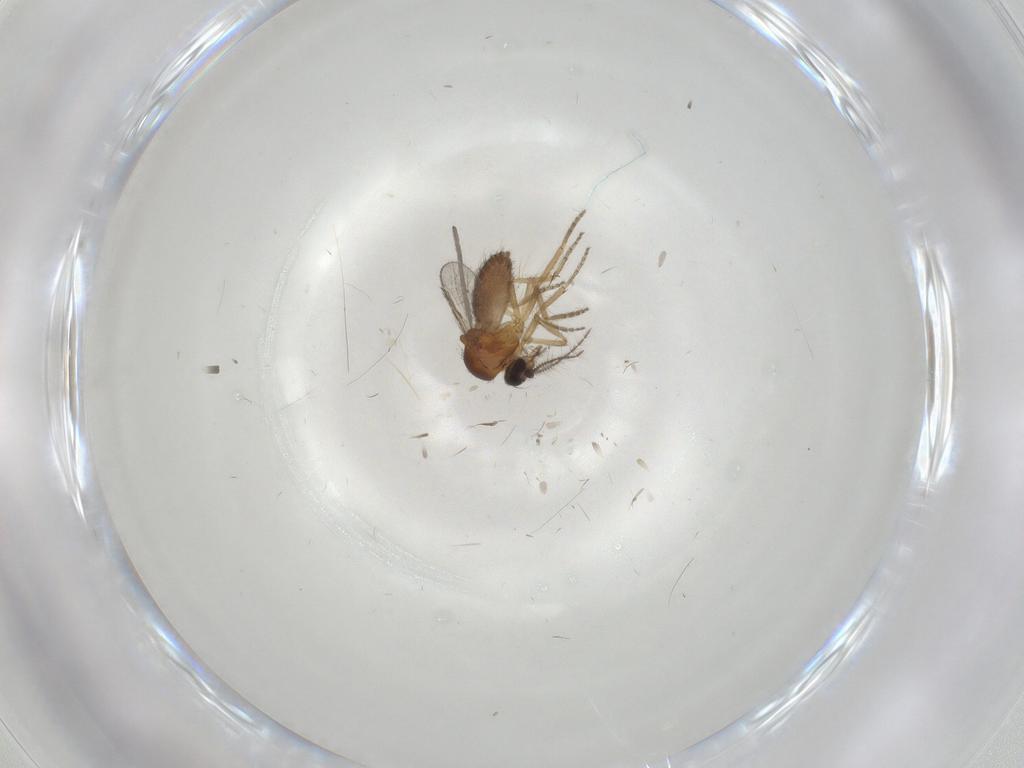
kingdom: Animalia
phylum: Arthropoda
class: Insecta
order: Diptera
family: Ceratopogonidae
